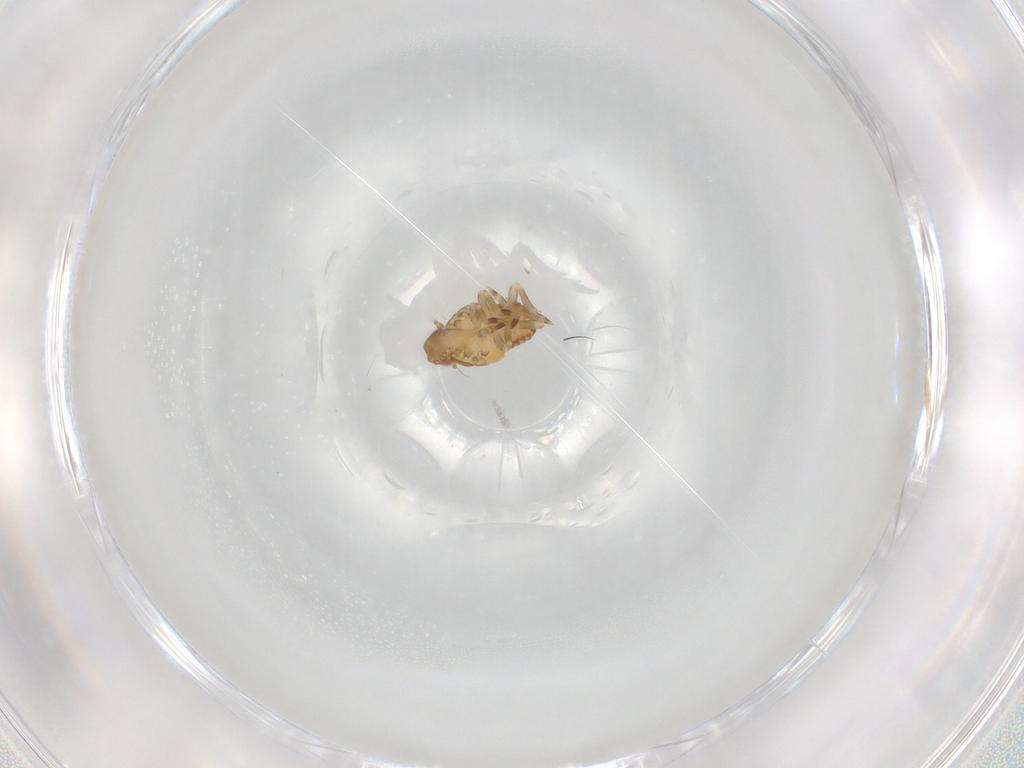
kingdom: Animalia
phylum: Arthropoda
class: Insecta
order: Hemiptera
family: Flatidae
